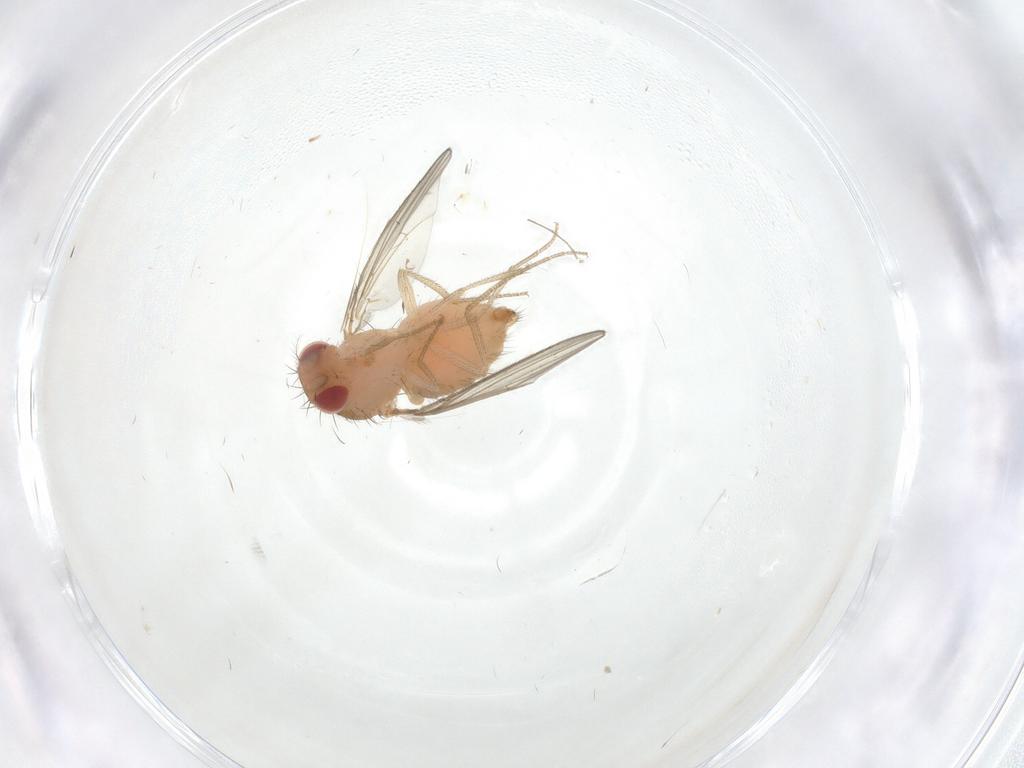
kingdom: Animalia
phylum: Arthropoda
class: Insecta
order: Diptera
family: Drosophilidae
